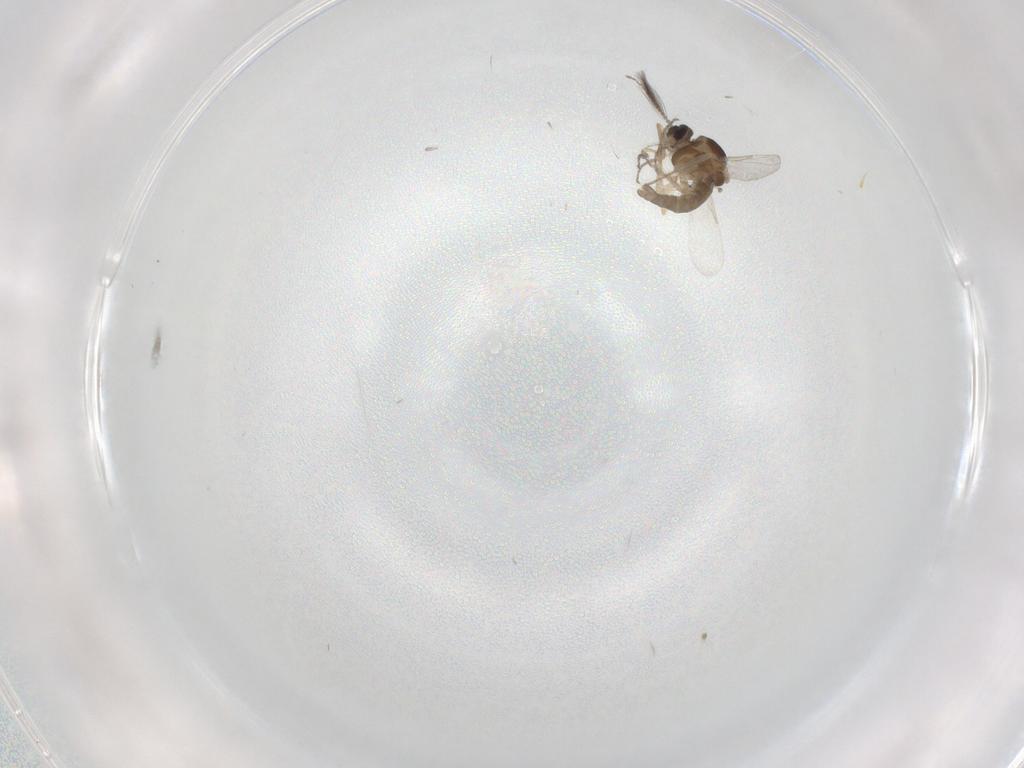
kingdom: Animalia
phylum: Arthropoda
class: Insecta
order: Diptera
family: Ceratopogonidae
